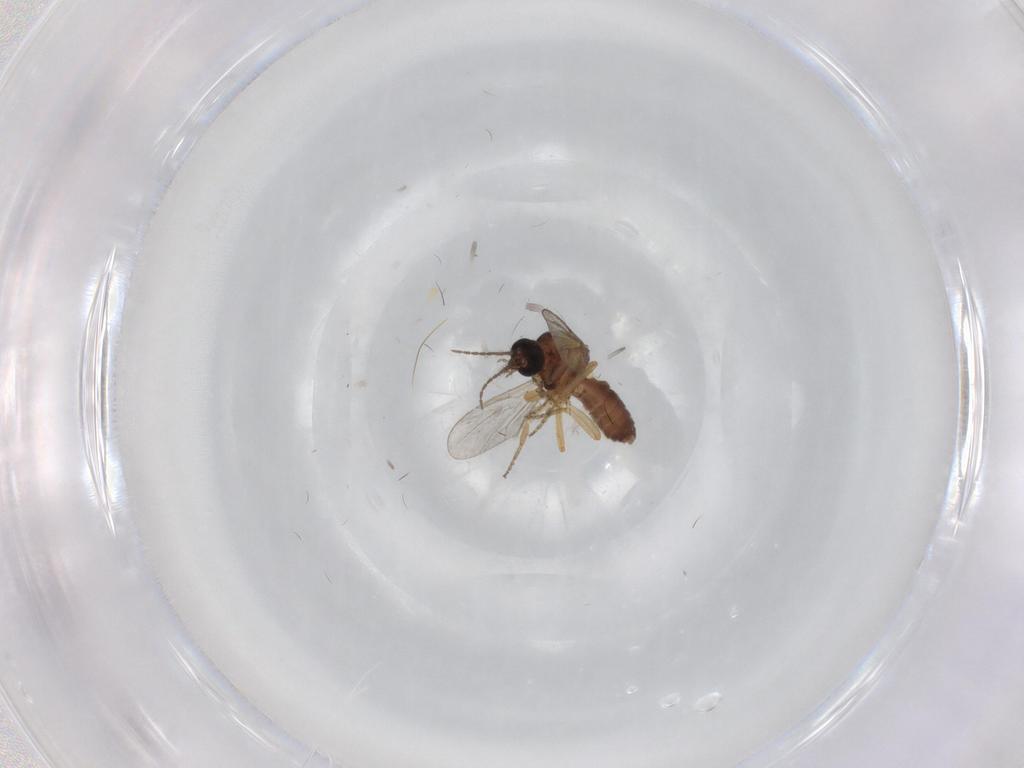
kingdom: Animalia
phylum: Arthropoda
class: Insecta
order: Diptera
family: Ceratopogonidae
